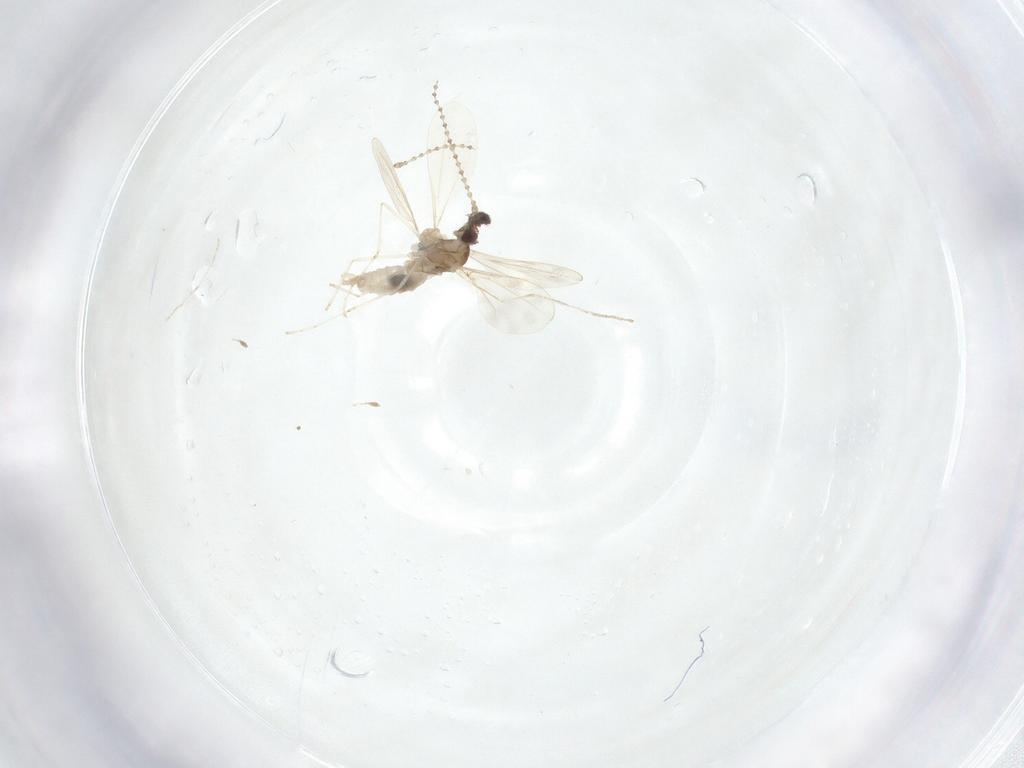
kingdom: Animalia
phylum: Arthropoda
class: Insecta
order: Diptera
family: Cecidomyiidae
